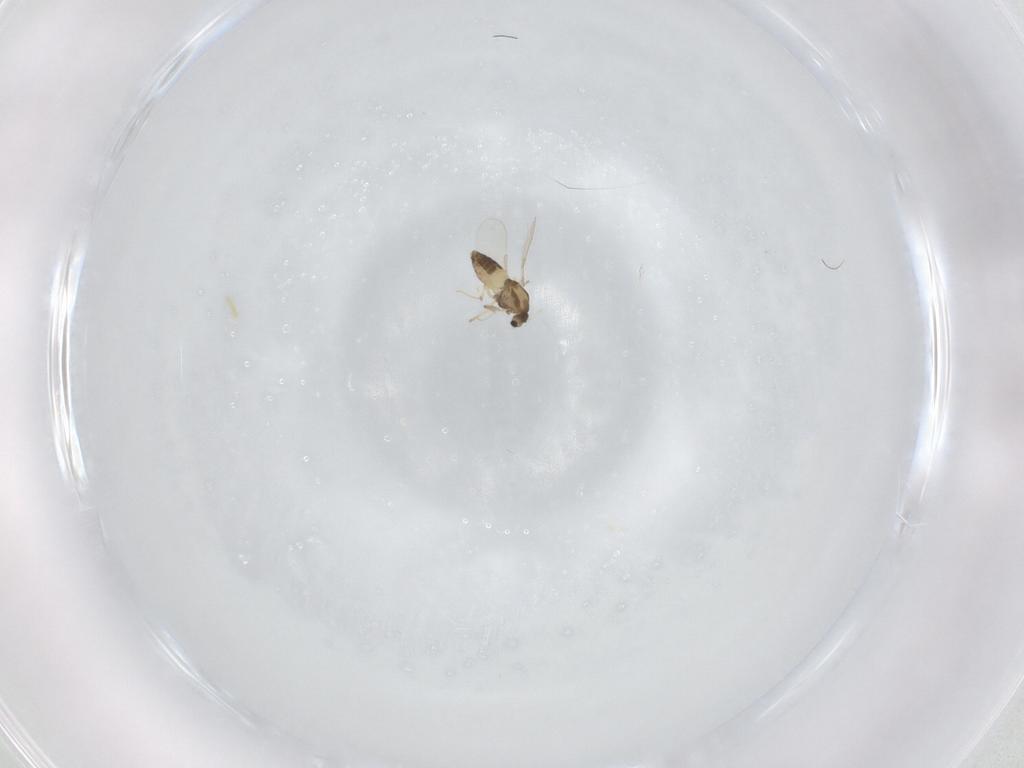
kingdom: Animalia
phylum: Arthropoda
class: Insecta
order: Diptera
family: Chironomidae
